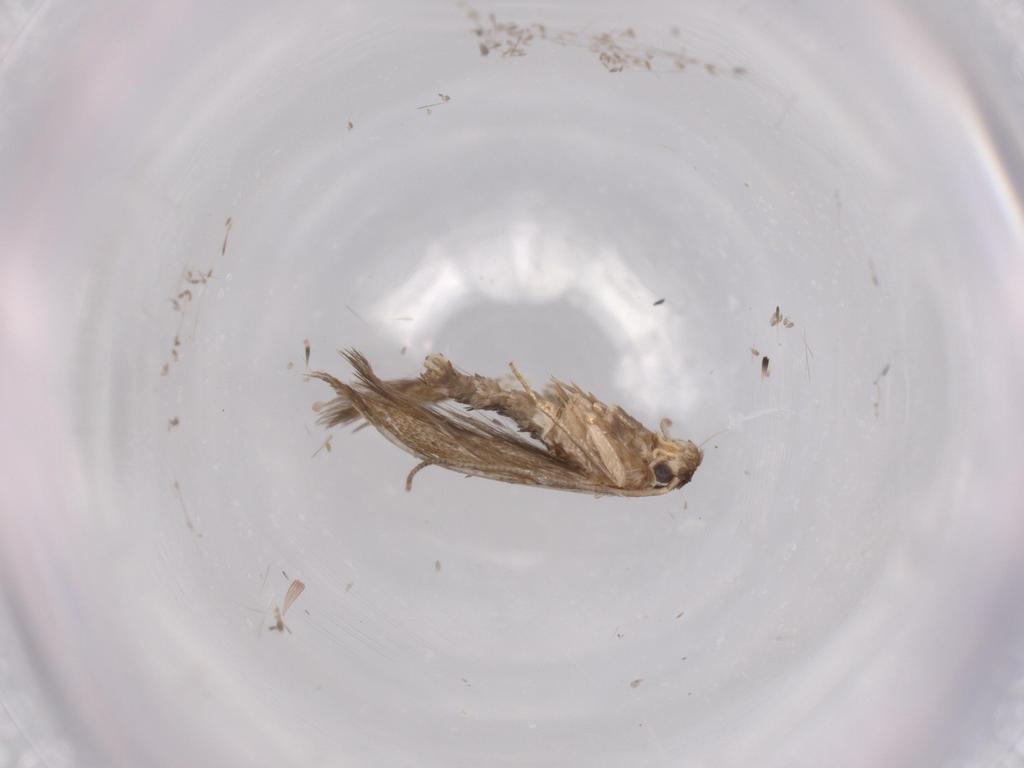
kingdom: Animalia
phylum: Arthropoda
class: Insecta
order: Lepidoptera
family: Tineidae
